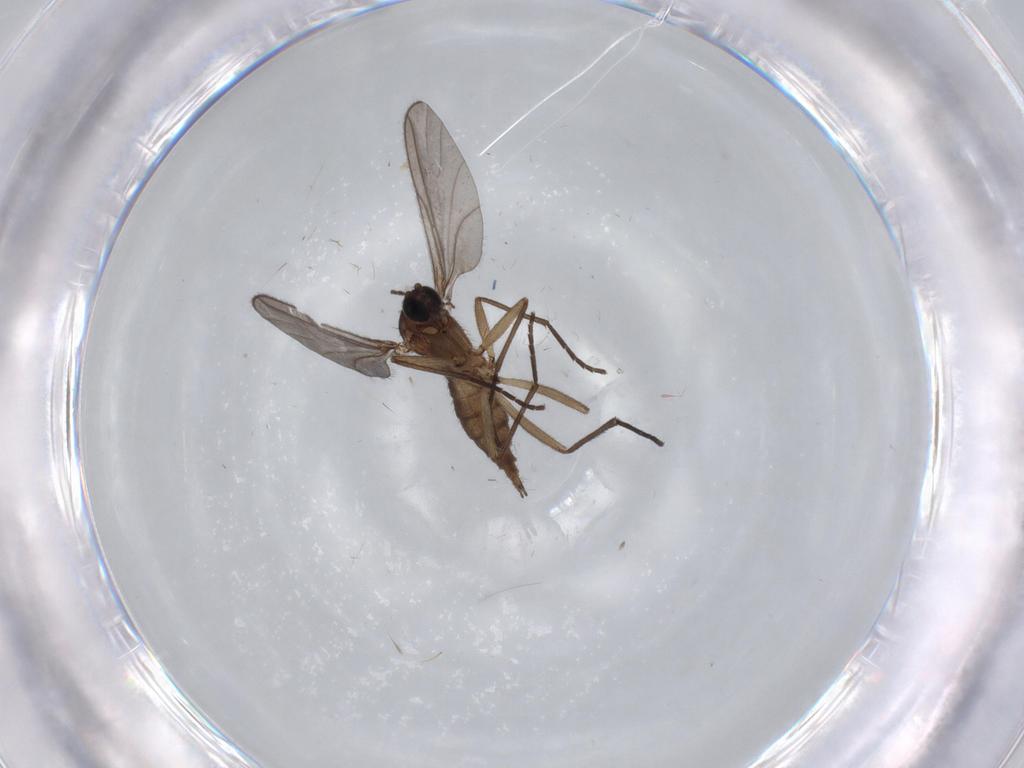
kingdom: Animalia
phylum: Arthropoda
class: Insecta
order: Diptera
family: Sciaridae
